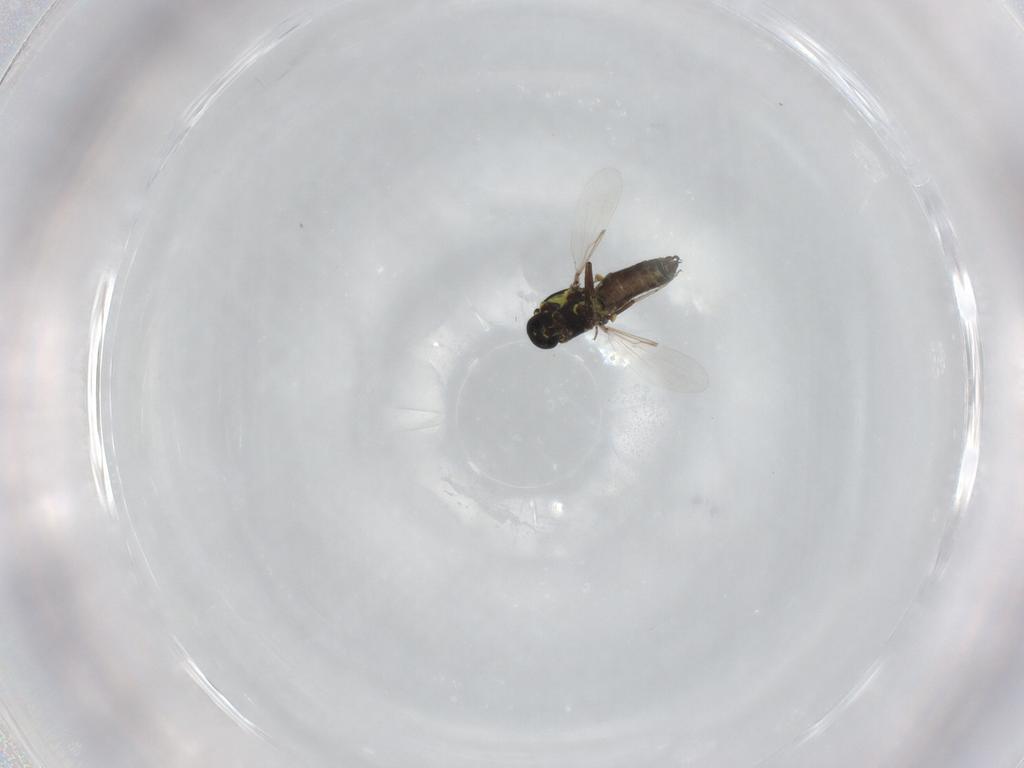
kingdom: Animalia
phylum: Arthropoda
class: Insecta
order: Diptera
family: Ceratopogonidae
